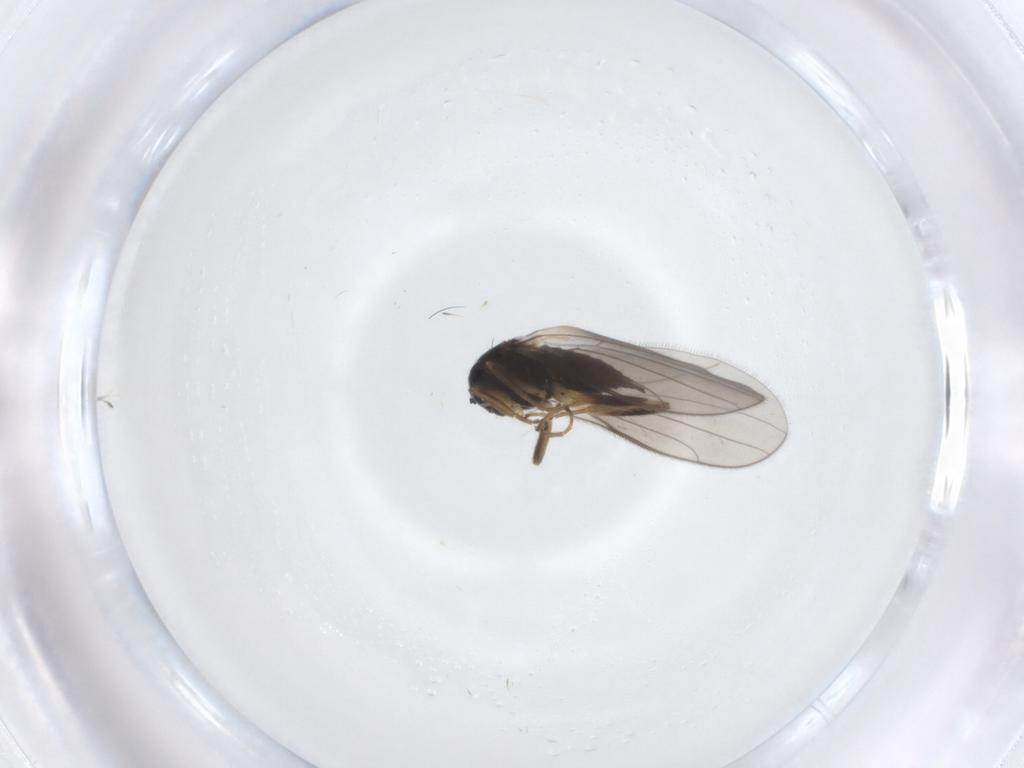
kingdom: Animalia
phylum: Arthropoda
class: Insecta
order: Diptera
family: Hybotidae
